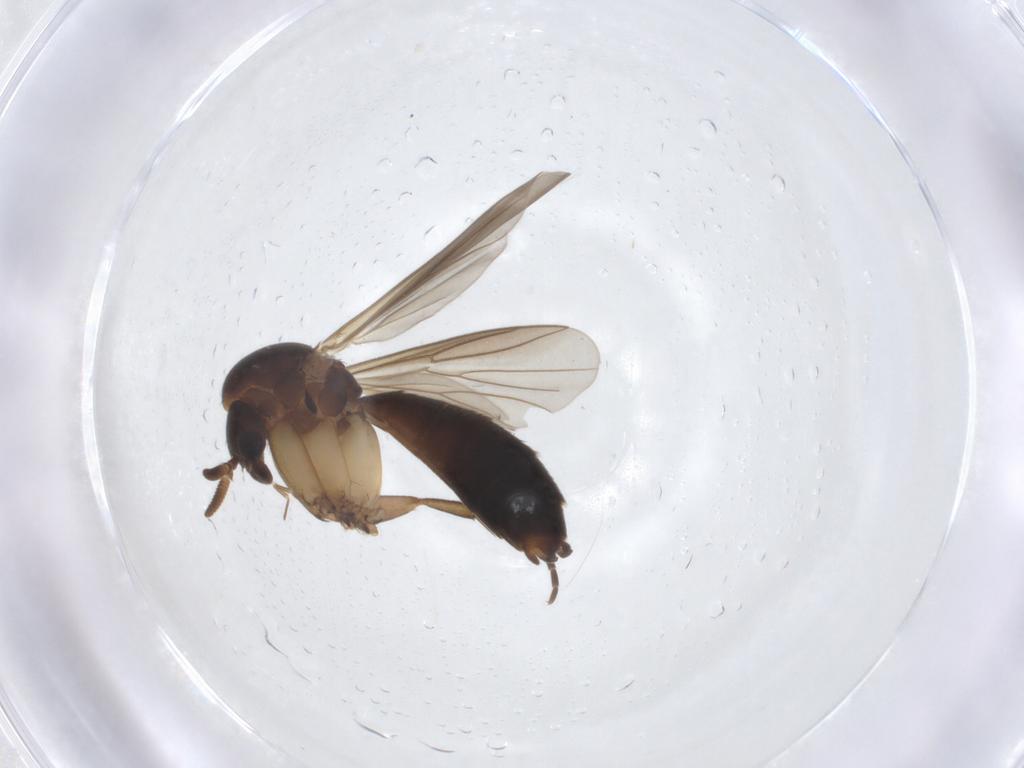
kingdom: Animalia
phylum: Arthropoda
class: Insecta
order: Diptera
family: Mycetophilidae
